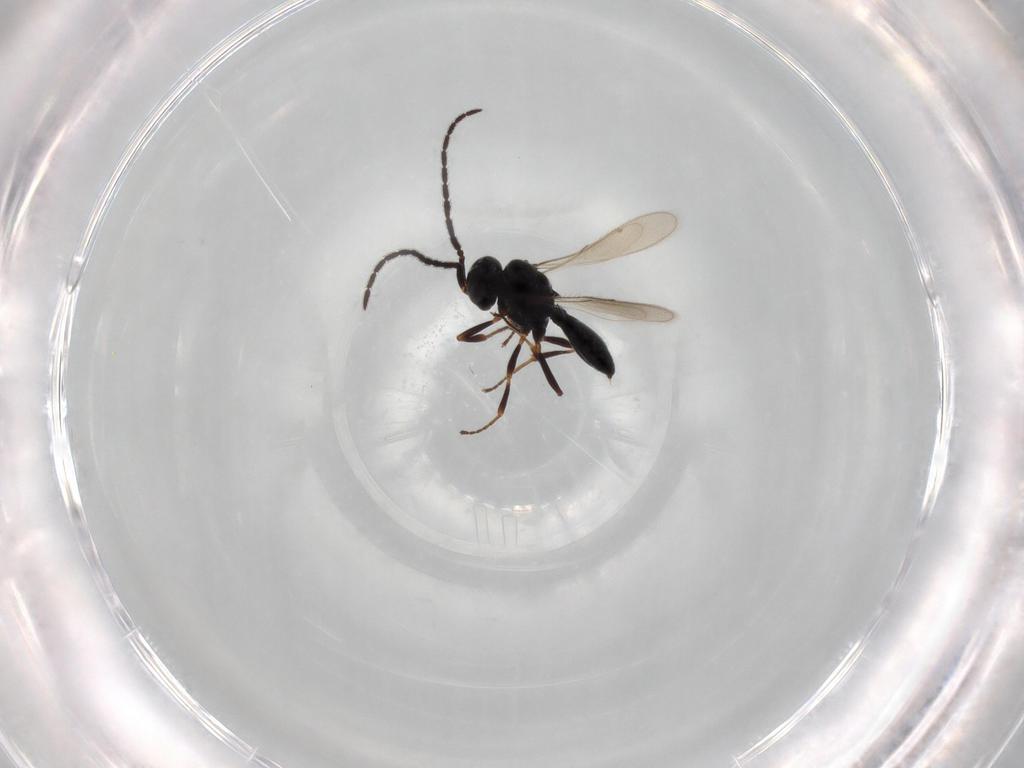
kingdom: Animalia
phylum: Arthropoda
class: Insecta
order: Hymenoptera
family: Scelionidae
